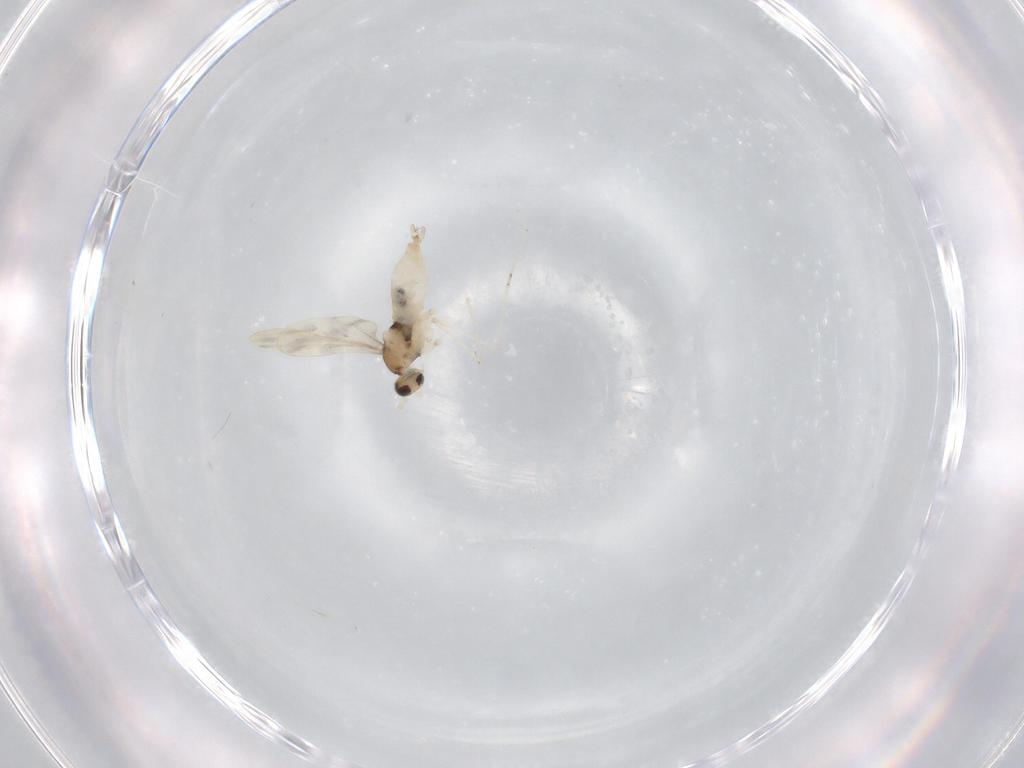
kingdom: Animalia
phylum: Arthropoda
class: Insecta
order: Diptera
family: Cecidomyiidae
